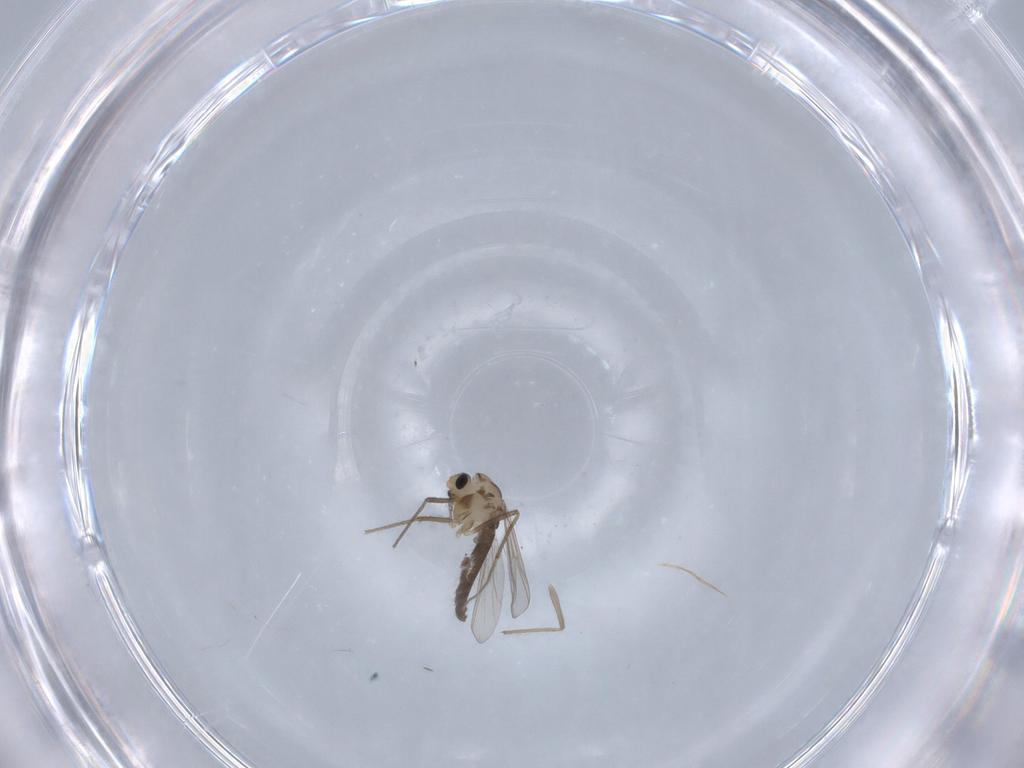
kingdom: Animalia
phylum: Arthropoda
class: Insecta
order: Diptera
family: Chironomidae
